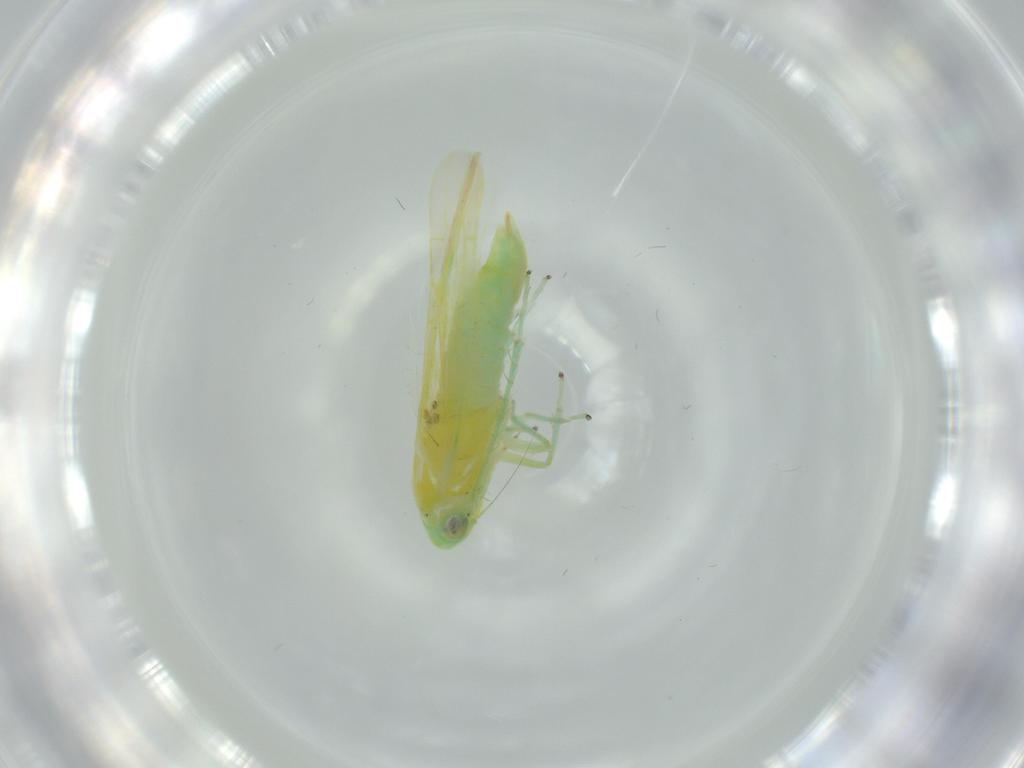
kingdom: Animalia
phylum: Arthropoda
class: Insecta
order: Hemiptera
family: Cicadellidae
